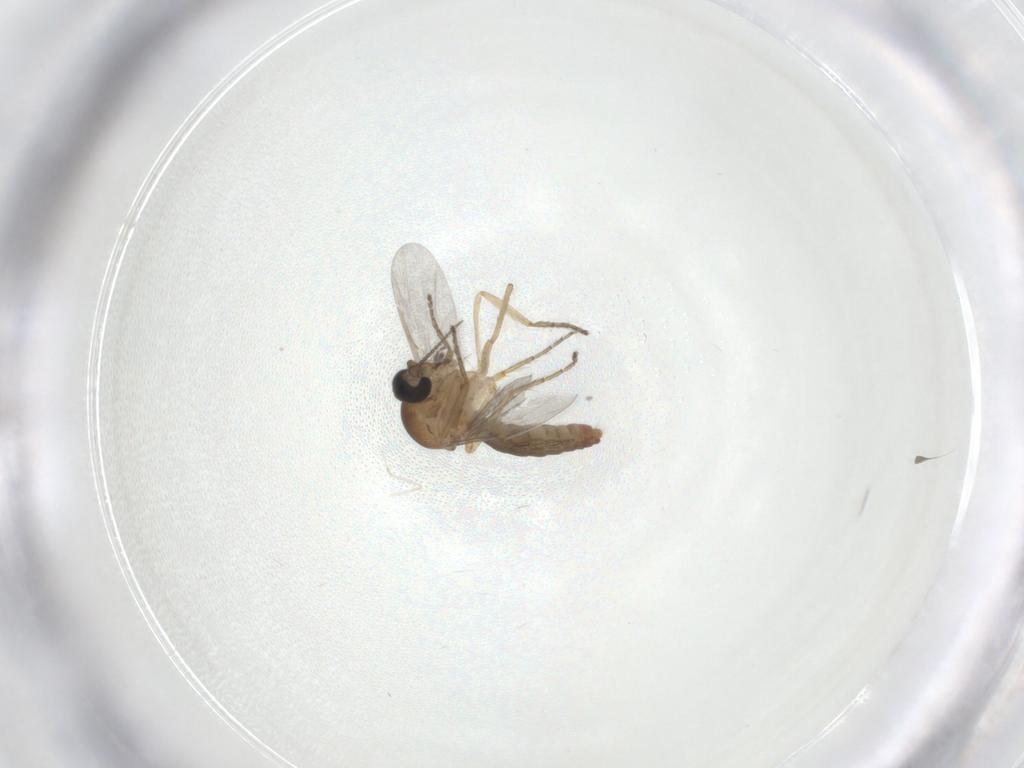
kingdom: Animalia
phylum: Arthropoda
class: Insecta
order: Diptera
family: Ceratopogonidae
